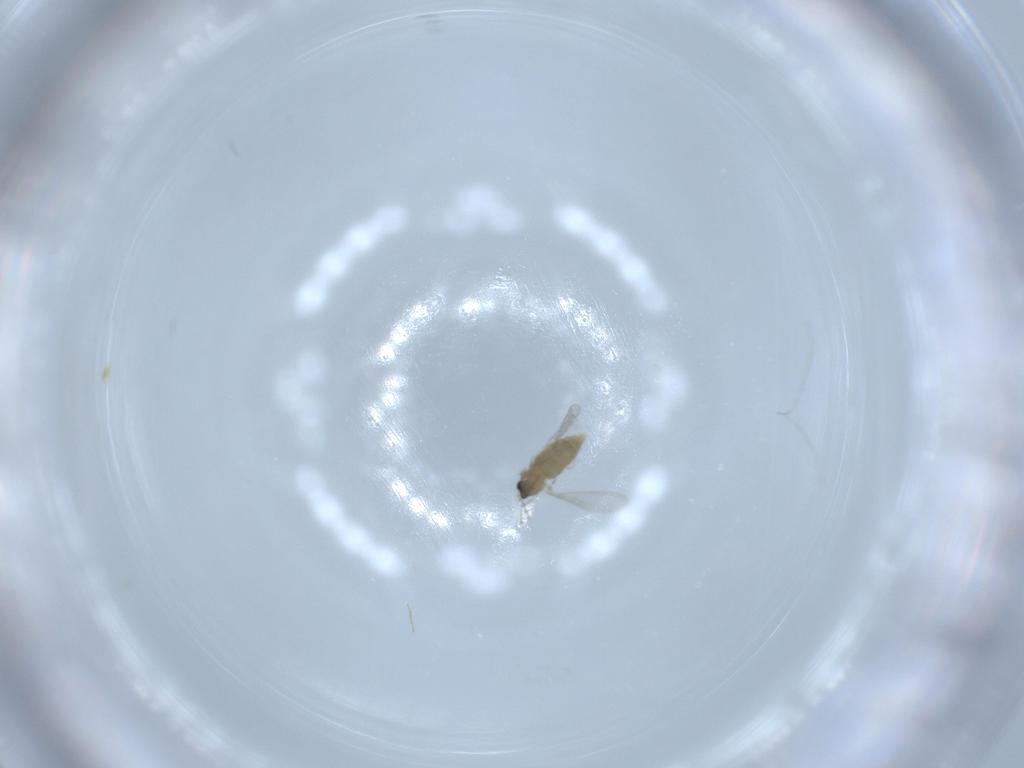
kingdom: Animalia
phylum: Arthropoda
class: Insecta
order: Diptera
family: Cecidomyiidae
